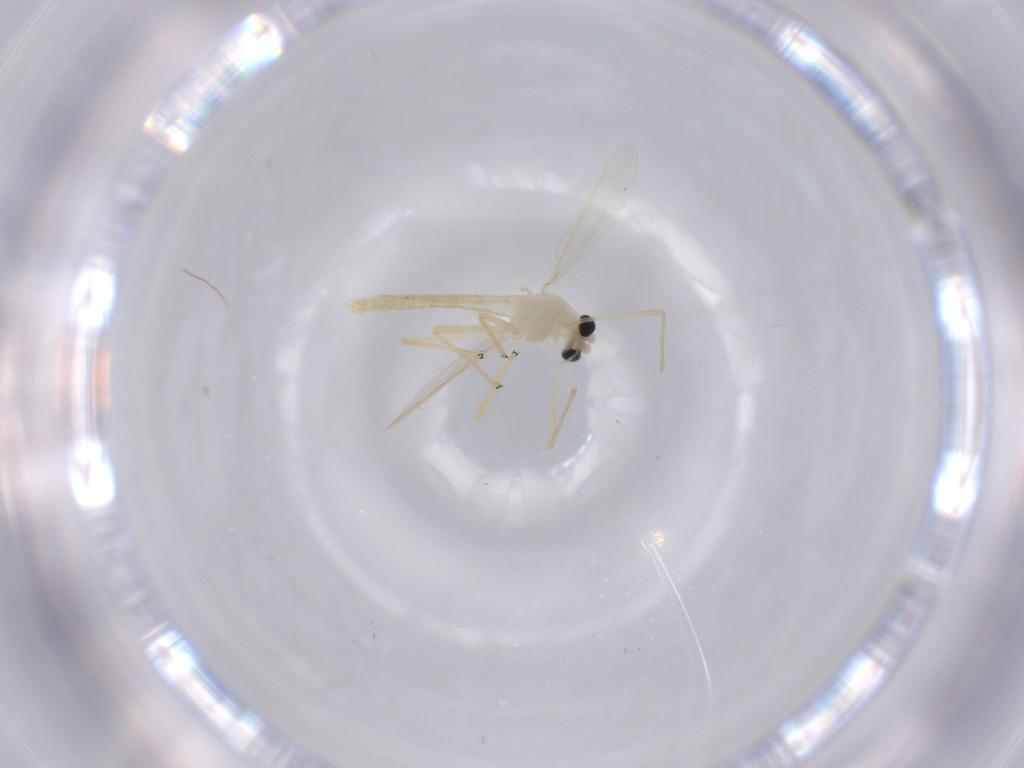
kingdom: Animalia
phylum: Arthropoda
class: Insecta
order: Diptera
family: Chironomidae
